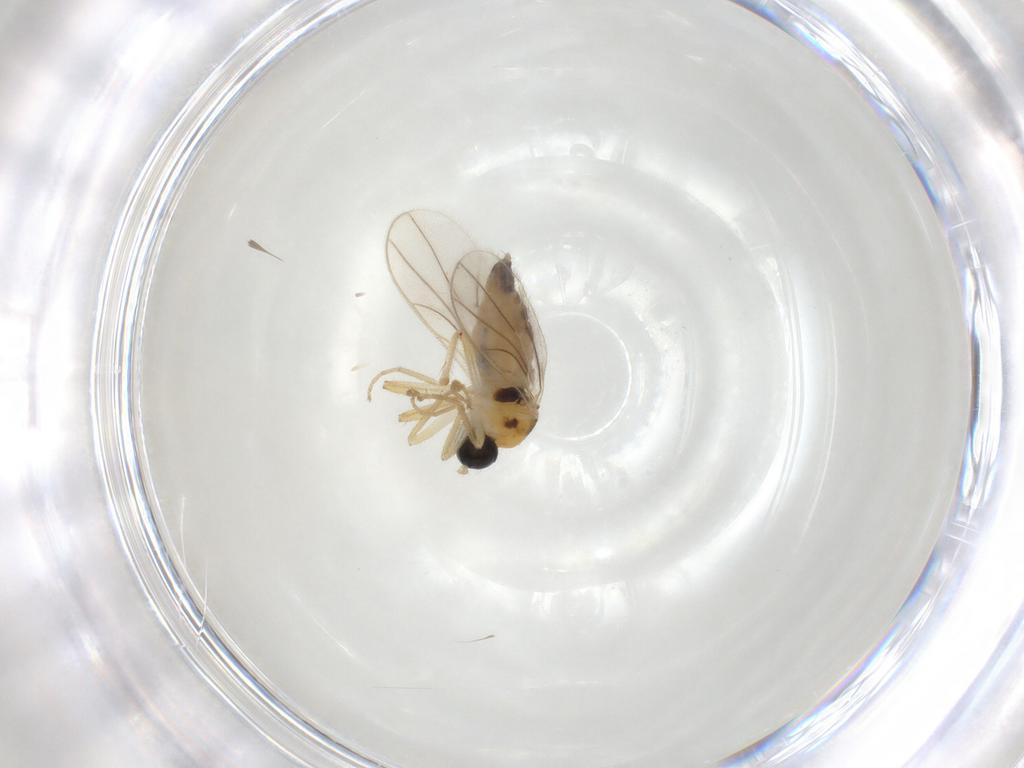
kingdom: Animalia
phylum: Arthropoda
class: Insecta
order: Diptera
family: Hybotidae
